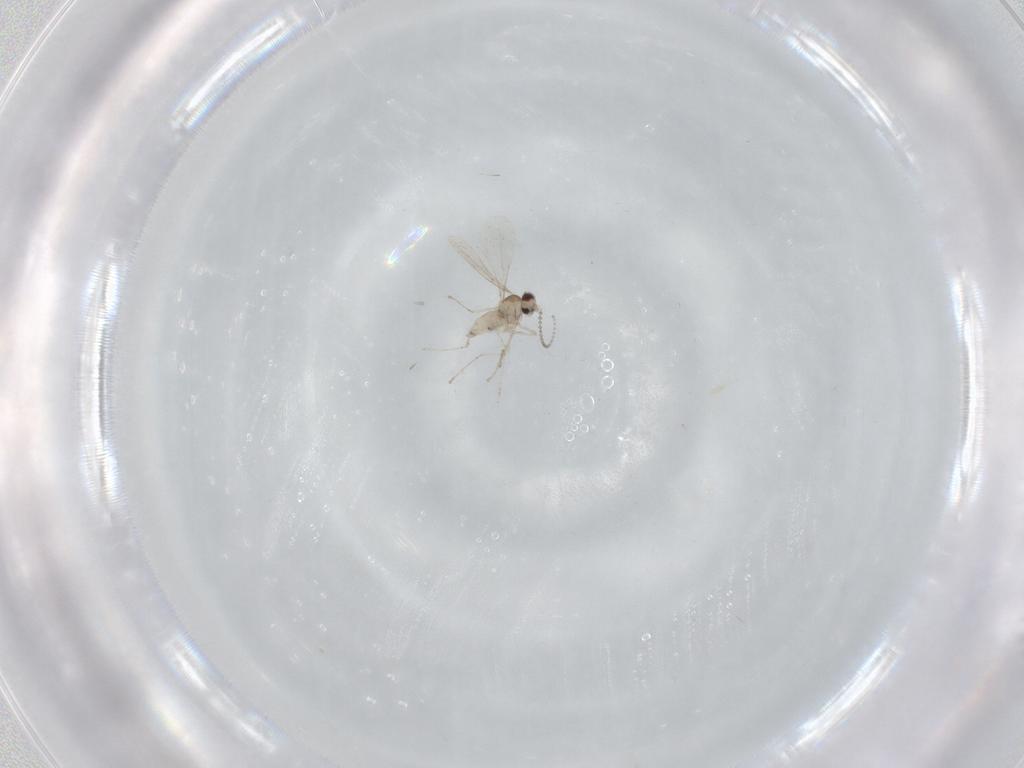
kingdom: Animalia
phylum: Arthropoda
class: Insecta
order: Diptera
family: Cecidomyiidae
